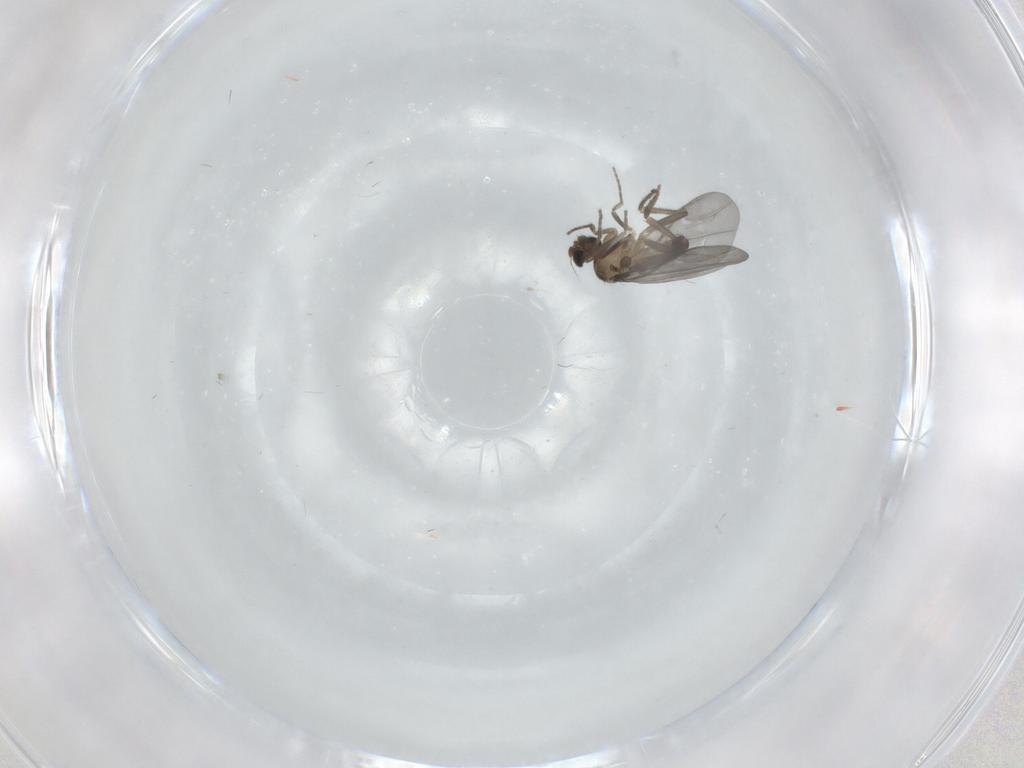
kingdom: Animalia
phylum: Arthropoda
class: Insecta
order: Diptera
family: Phoridae
